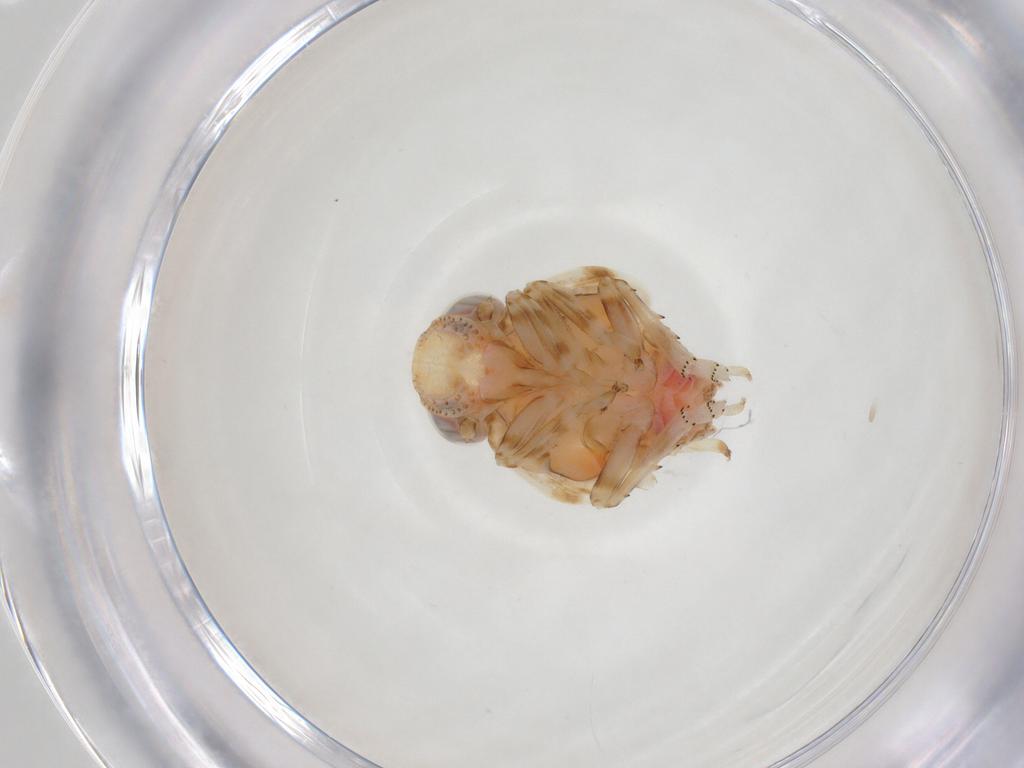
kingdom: Animalia
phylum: Arthropoda
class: Insecta
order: Hemiptera
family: Issidae
